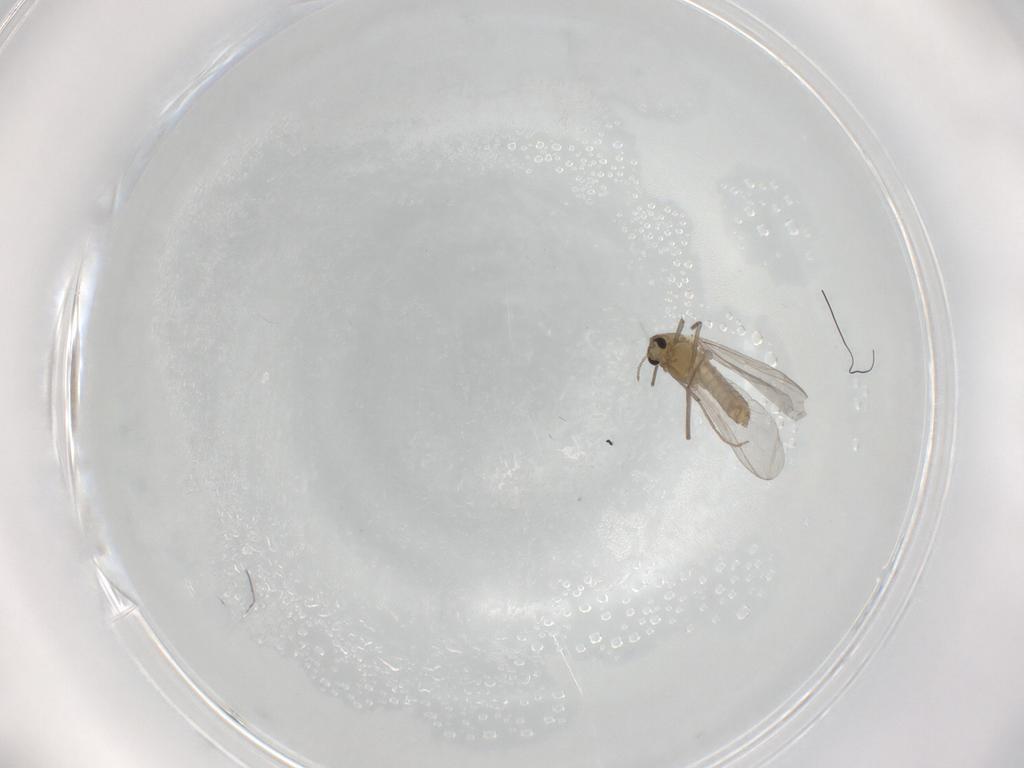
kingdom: Animalia
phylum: Arthropoda
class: Insecta
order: Diptera
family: Chironomidae
